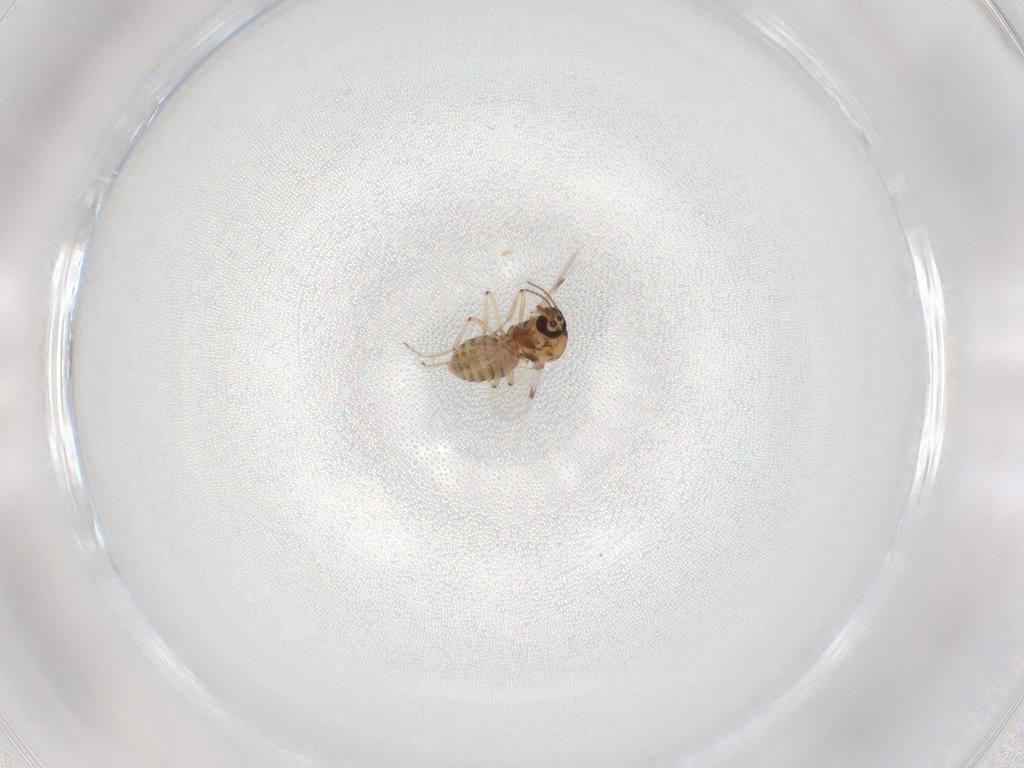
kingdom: Animalia
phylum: Arthropoda
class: Insecta
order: Diptera
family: Ceratopogonidae
